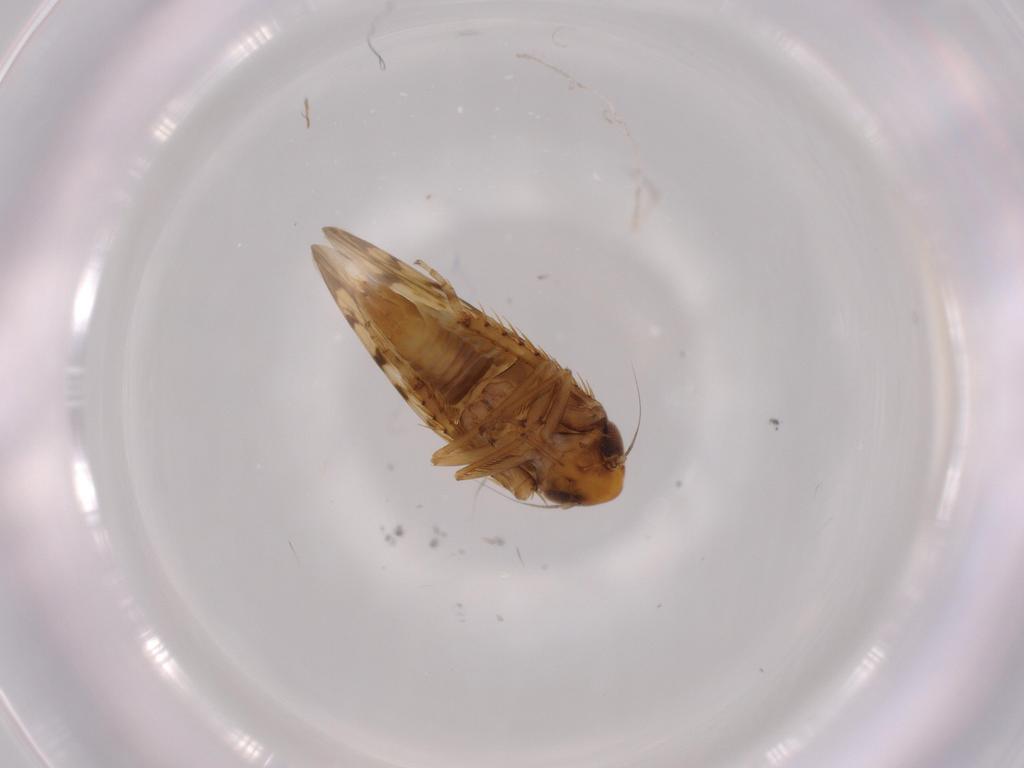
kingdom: Animalia
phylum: Arthropoda
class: Insecta
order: Hemiptera
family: Cicadellidae
